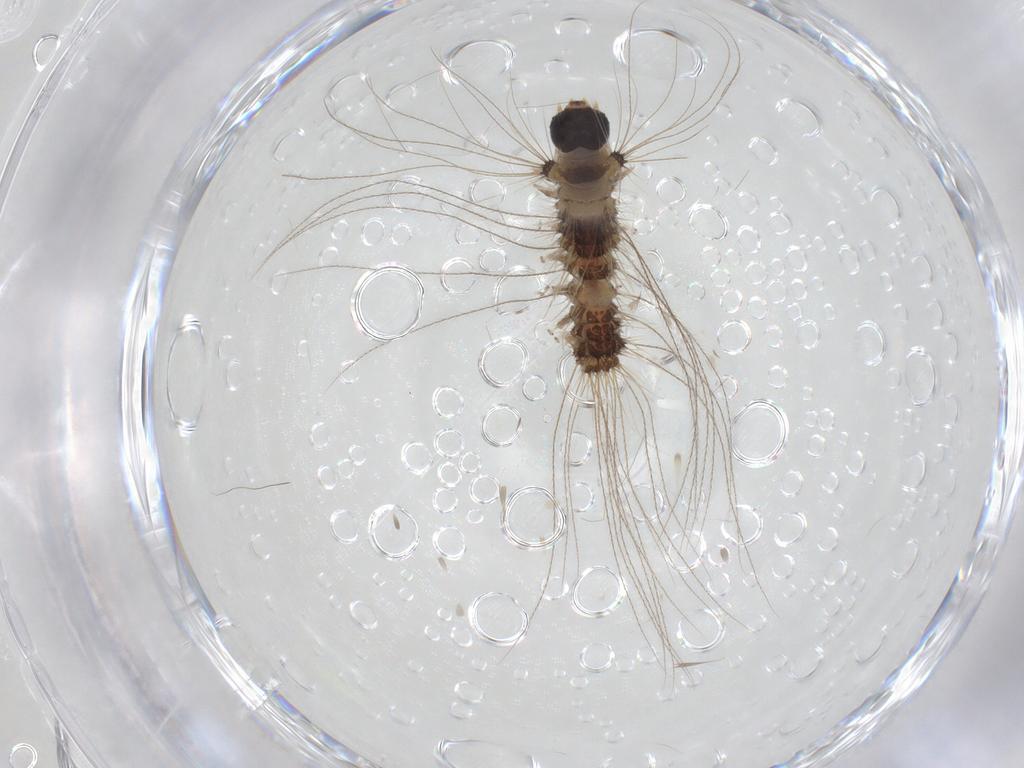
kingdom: Animalia
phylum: Arthropoda
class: Insecta
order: Lepidoptera
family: Erebidae
